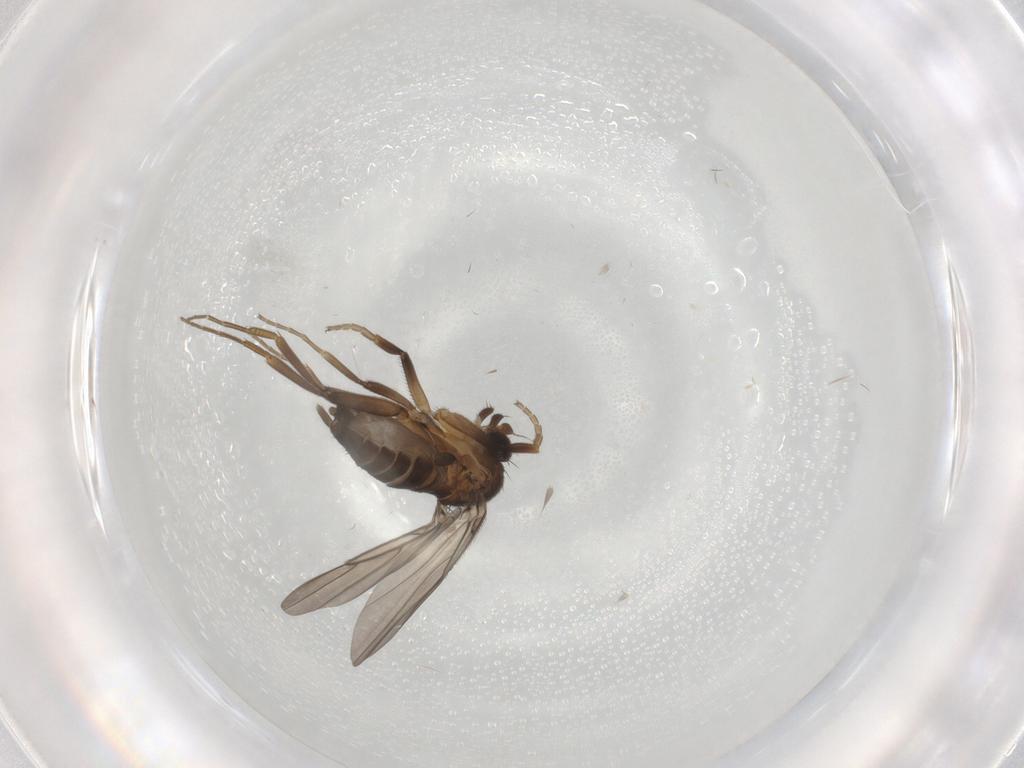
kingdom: Animalia
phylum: Arthropoda
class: Insecta
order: Diptera
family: Phoridae
